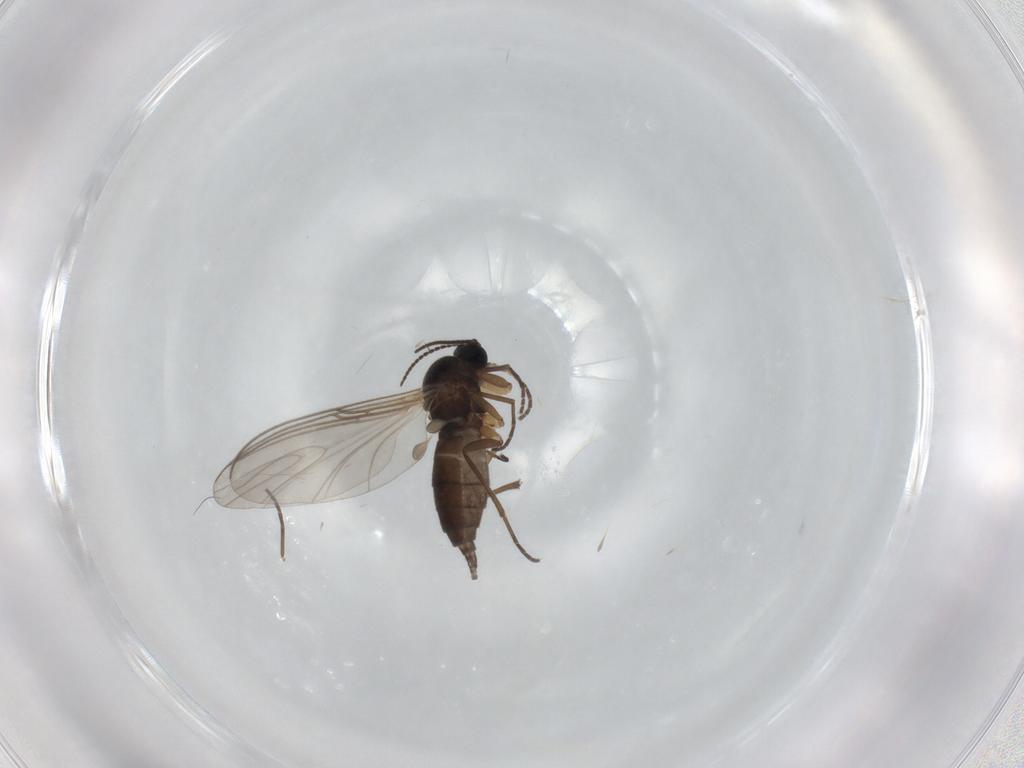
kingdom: Animalia
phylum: Arthropoda
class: Insecta
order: Diptera
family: Sciaridae
